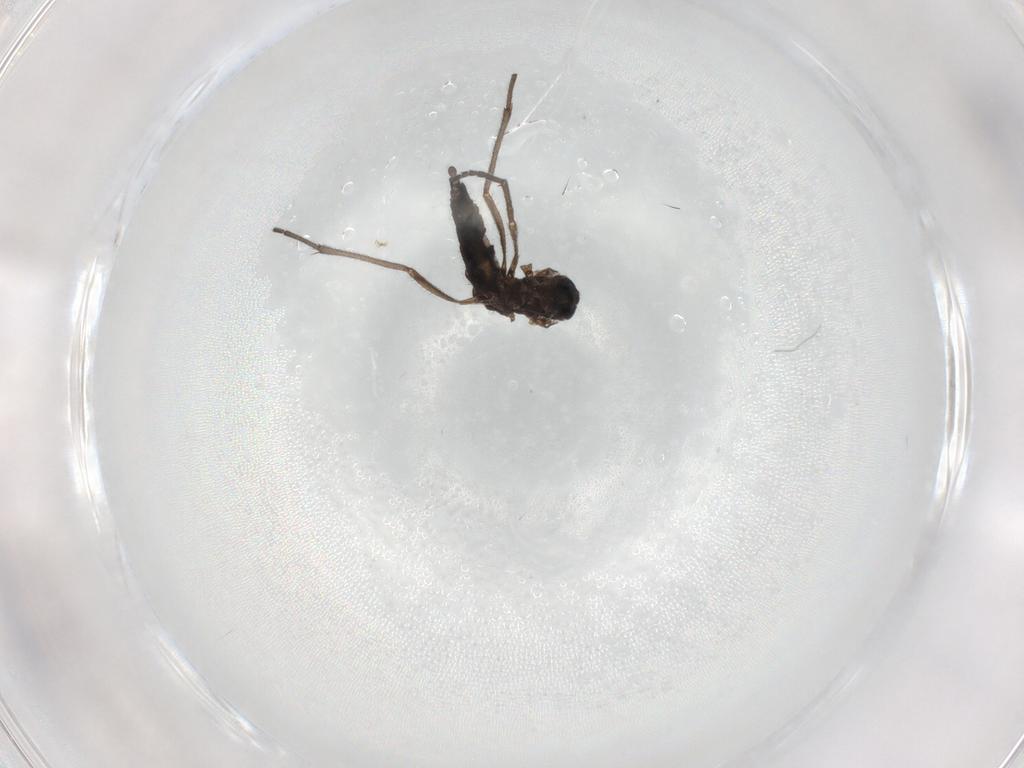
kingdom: Animalia
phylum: Arthropoda
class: Insecta
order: Diptera
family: Sciaridae
